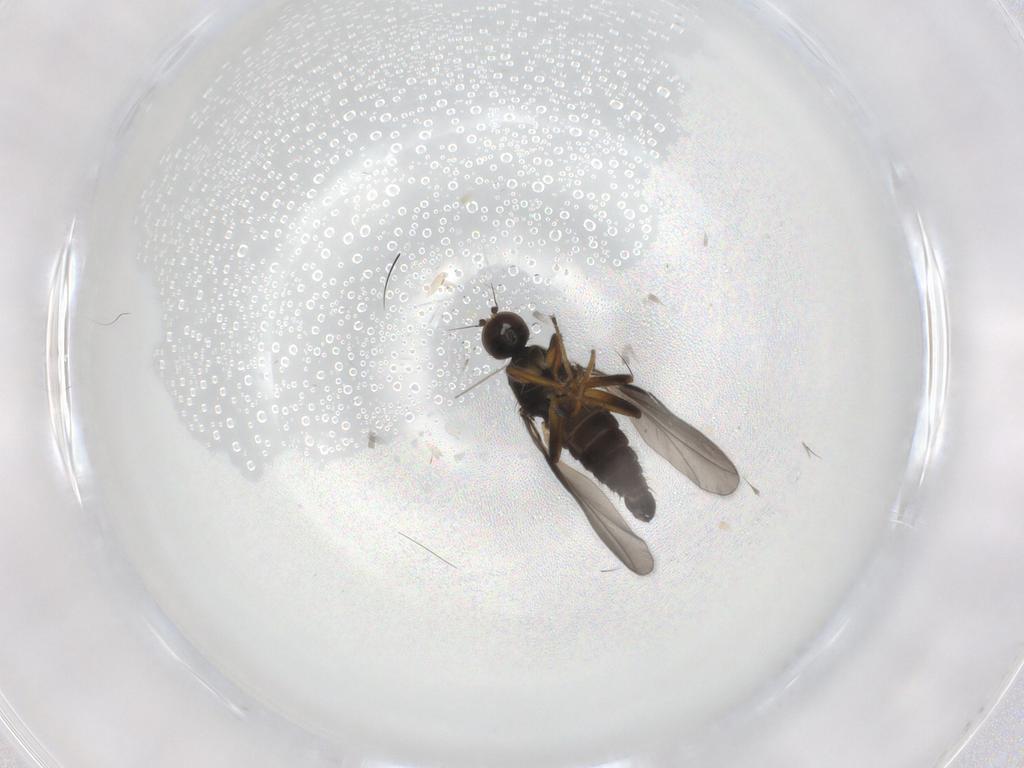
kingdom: Animalia
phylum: Arthropoda
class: Insecta
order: Diptera
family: Hybotidae
